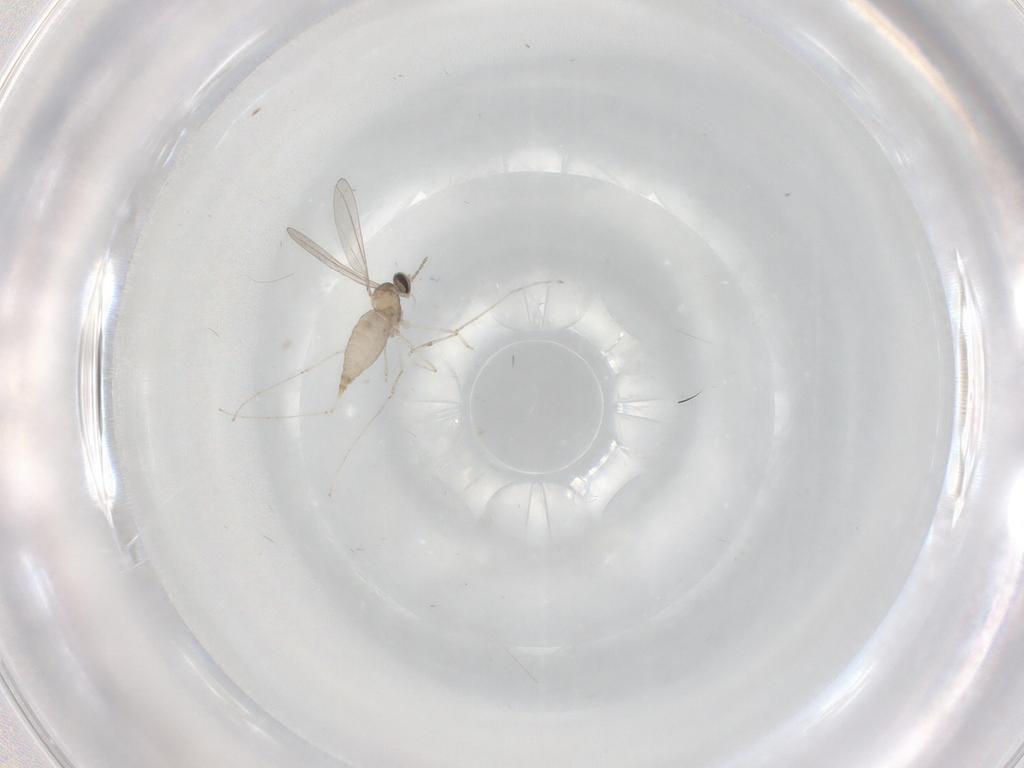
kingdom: Animalia
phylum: Arthropoda
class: Insecta
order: Diptera
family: Cecidomyiidae
